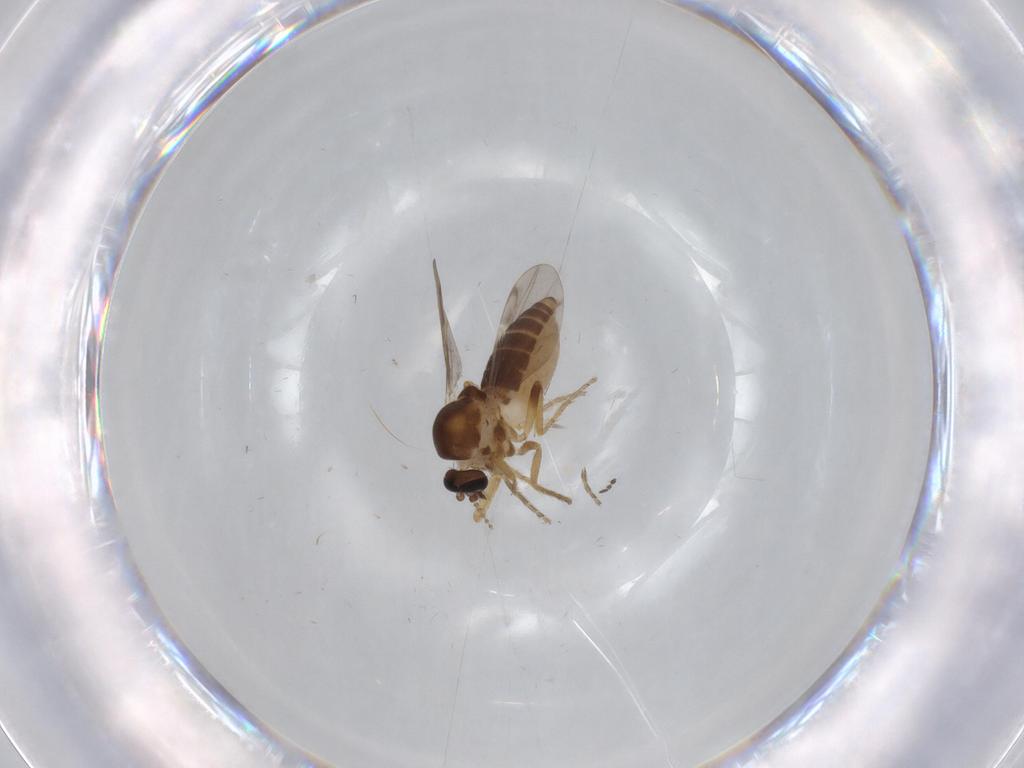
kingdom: Animalia
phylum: Arthropoda
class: Insecta
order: Diptera
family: Ceratopogonidae
